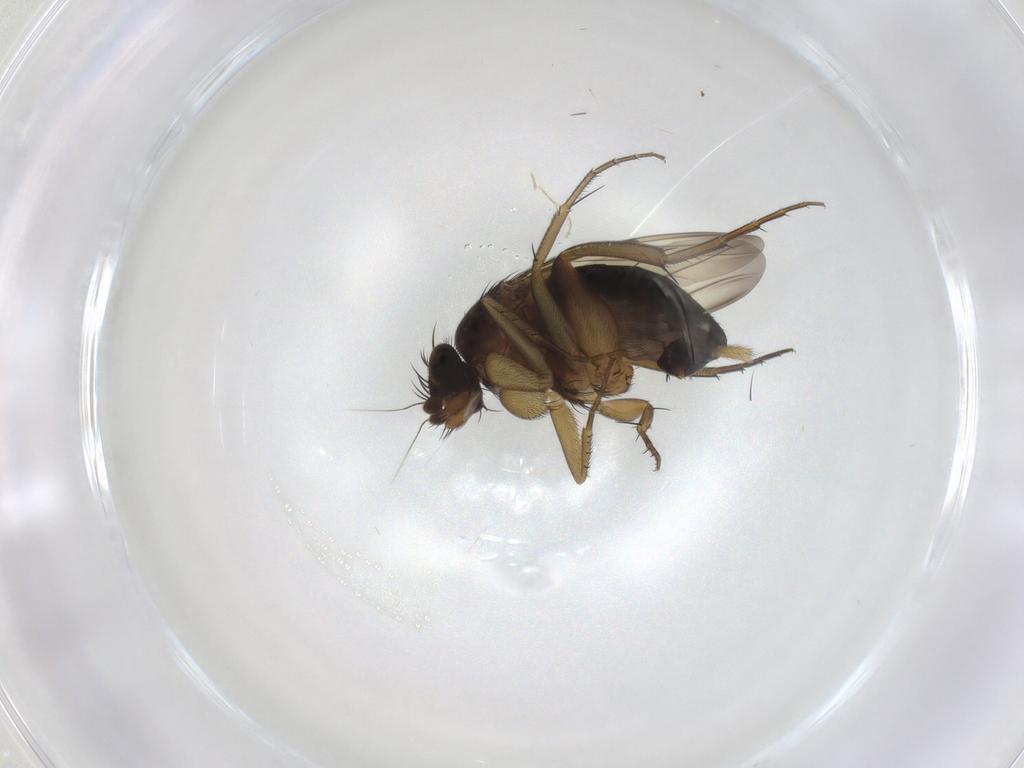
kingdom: Animalia
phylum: Arthropoda
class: Insecta
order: Diptera
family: Phoridae
